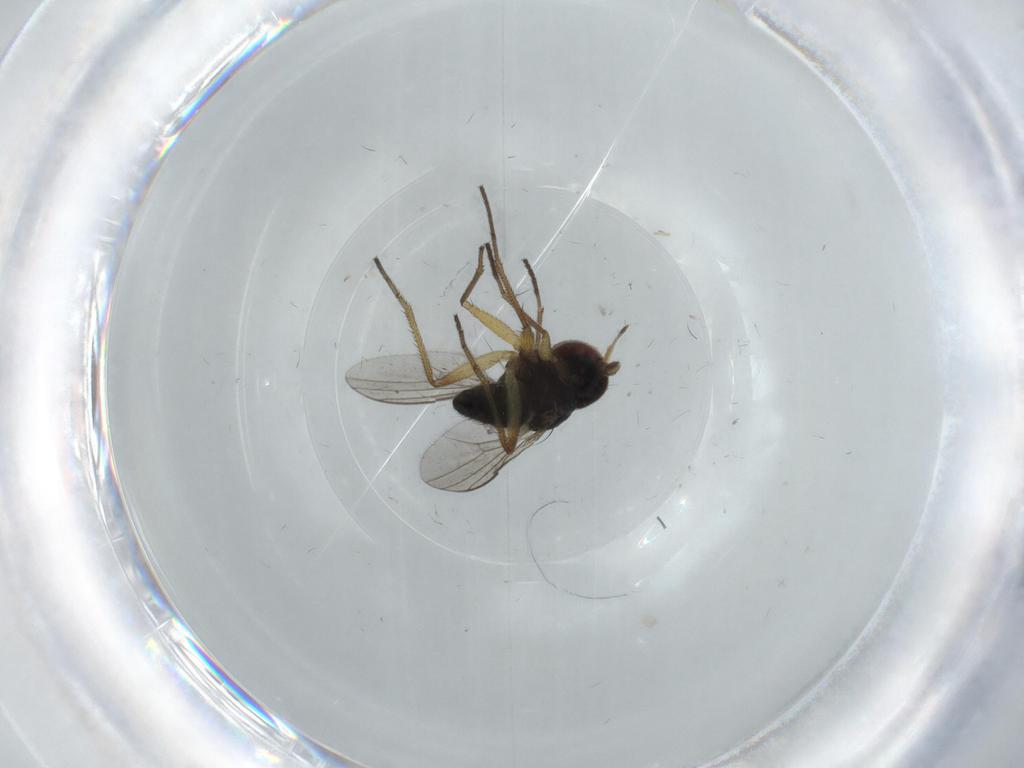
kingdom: Animalia
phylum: Arthropoda
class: Insecta
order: Diptera
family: Dolichopodidae
